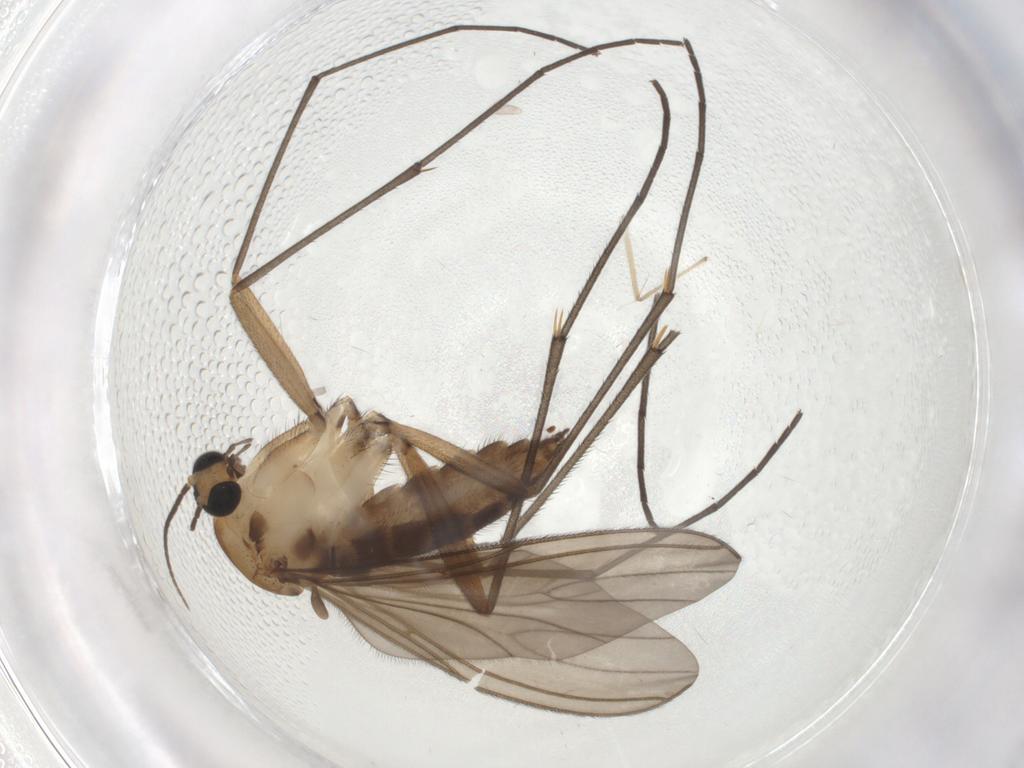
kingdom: Animalia
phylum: Arthropoda
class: Insecta
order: Diptera
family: Sciaridae
